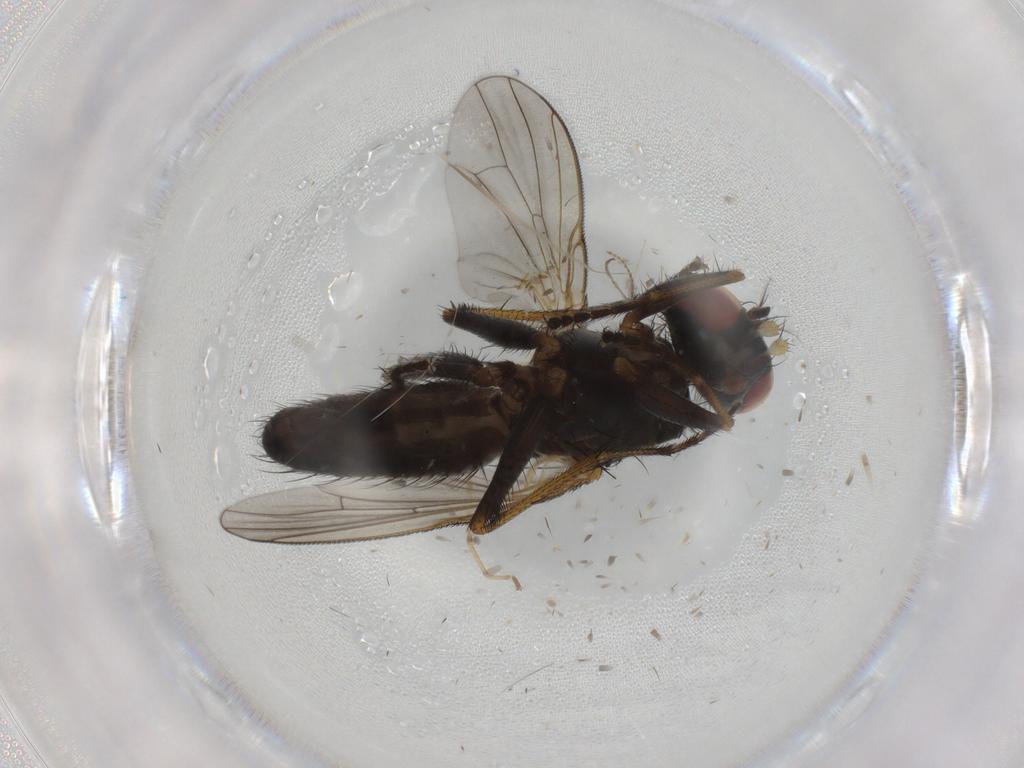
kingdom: Animalia
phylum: Arthropoda
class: Insecta
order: Diptera
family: Muscidae
